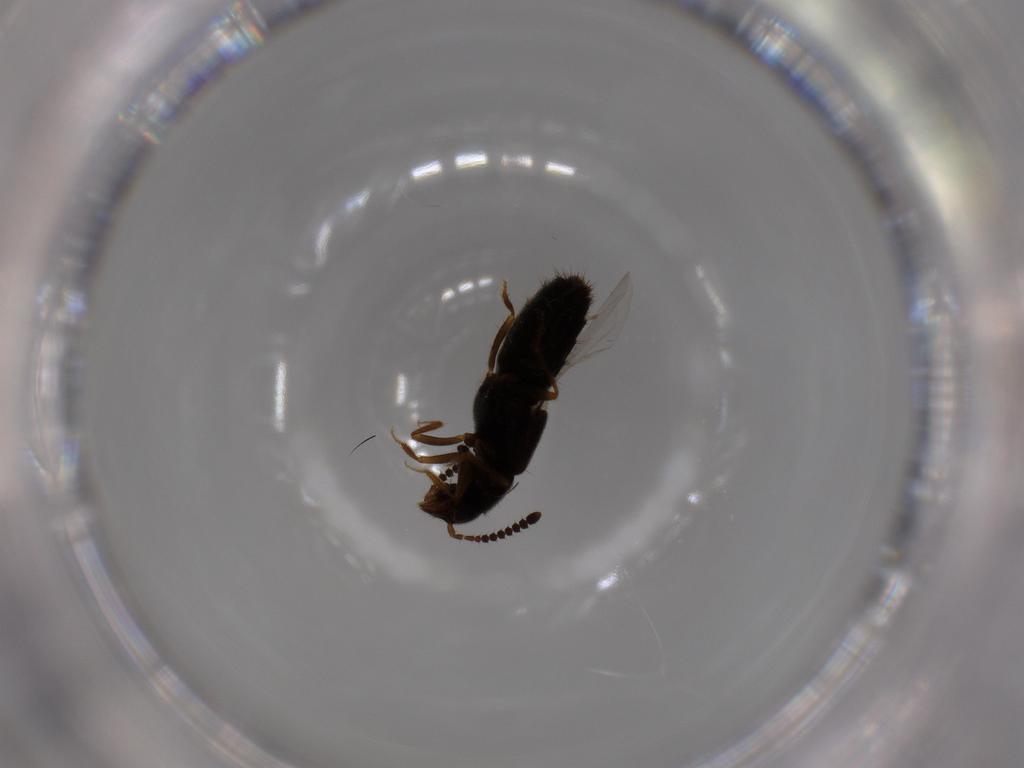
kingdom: Animalia
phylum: Arthropoda
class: Insecta
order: Coleoptera
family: Staphylinidae
